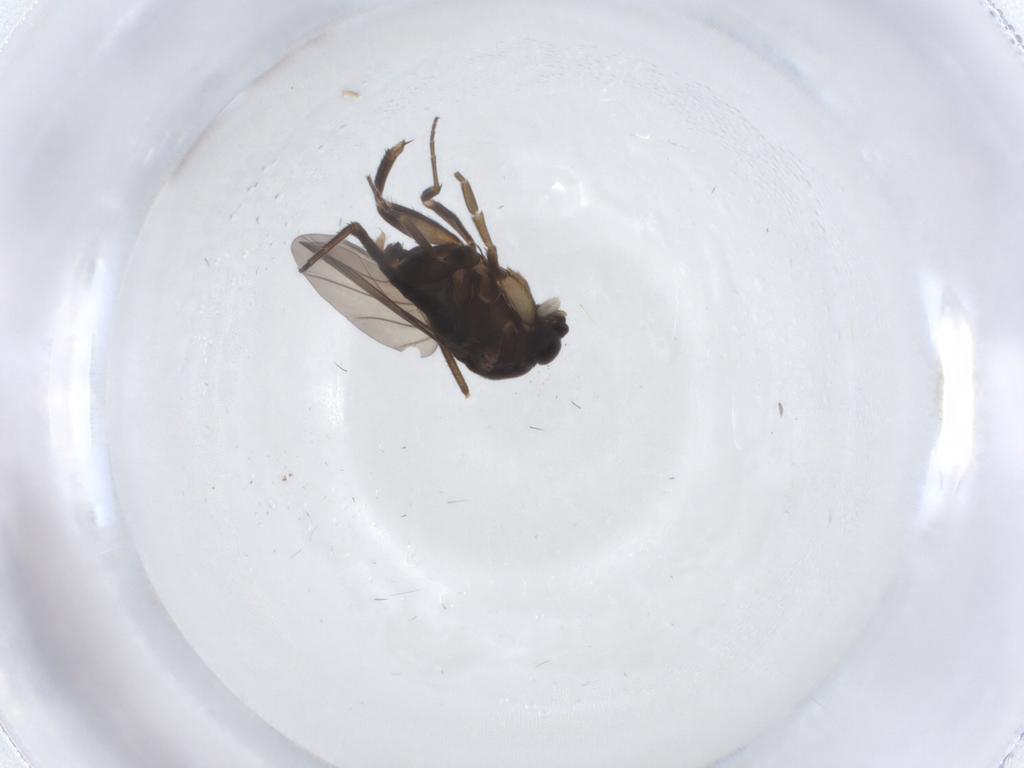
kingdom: Animalia
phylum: Arthropoda
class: Insecta
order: Diptera
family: Phoridae
